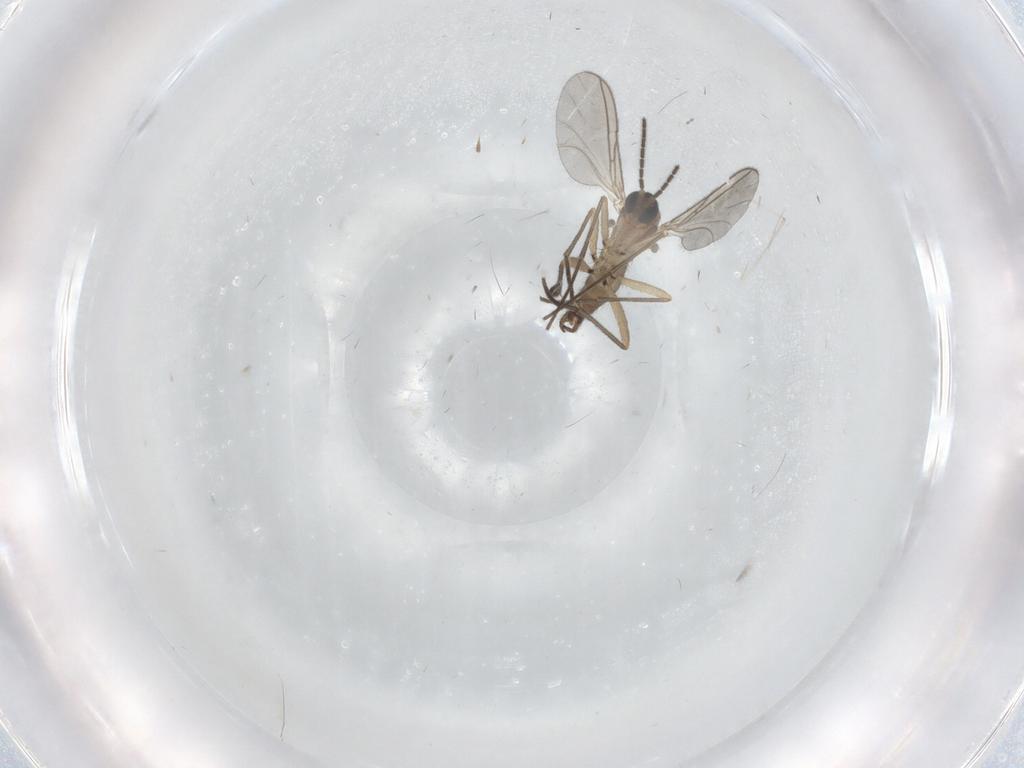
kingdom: Animalia
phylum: Arthropoda
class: Insecta
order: Diptera
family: Sciaridae
